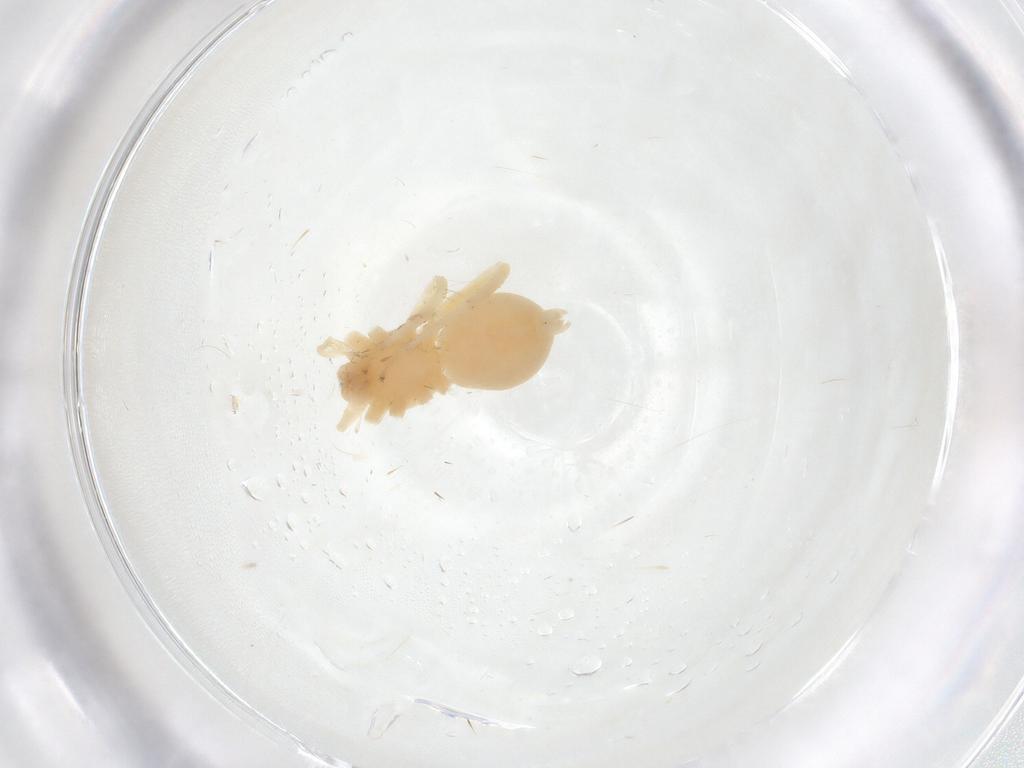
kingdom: Animalia
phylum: Arthropoda
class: Arachnida
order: Araneae
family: Anyphaenidae
